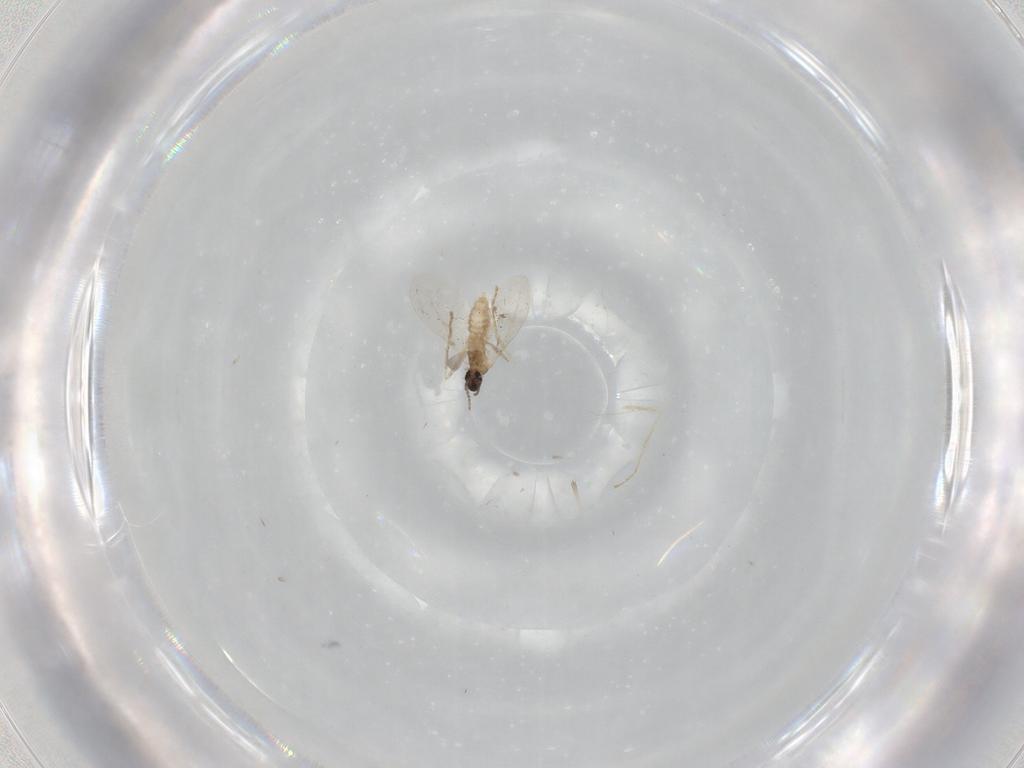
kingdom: Animalia
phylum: Arthropoda
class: Insecta
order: Diptera
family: Cecidomyiidae
